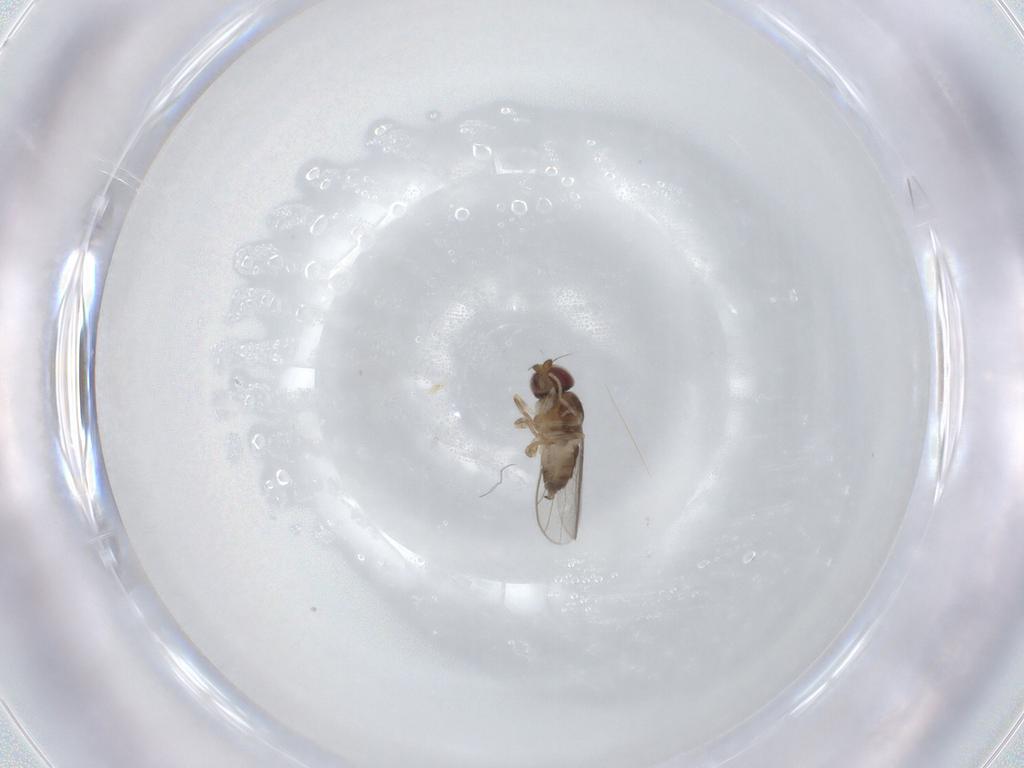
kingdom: Animalia
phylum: Arthropoda
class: Insecta
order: Diptera
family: Chloropidae
